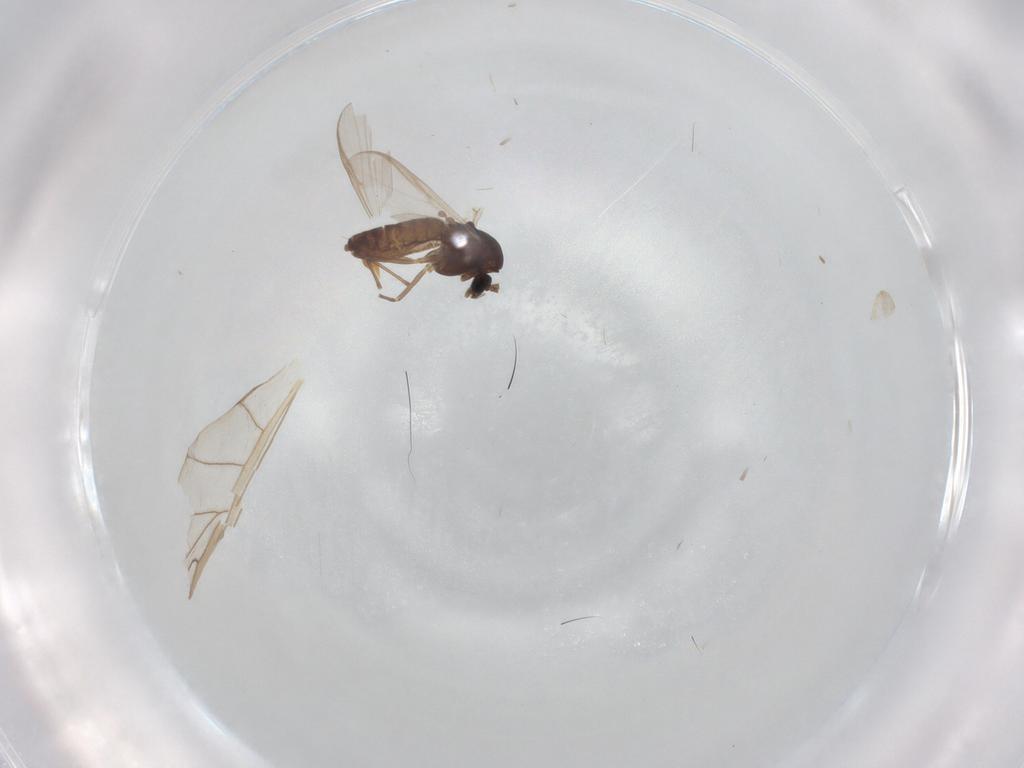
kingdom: Animalia
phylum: Arthropoda
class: Insecta
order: Diptera
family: Chironomidae
